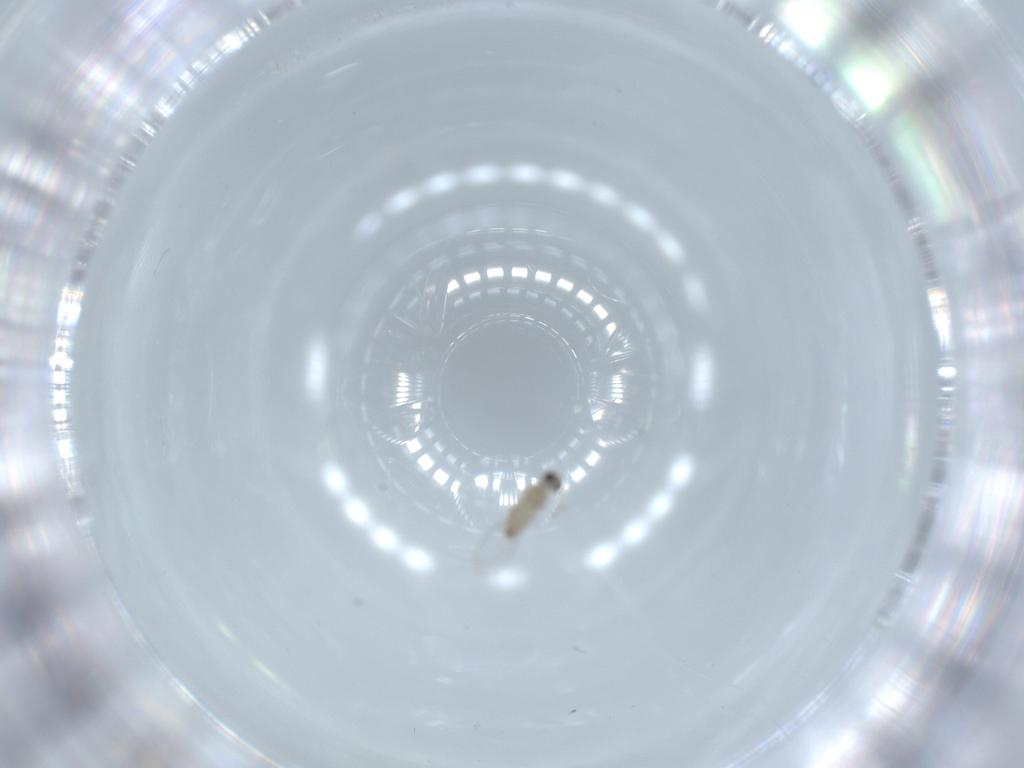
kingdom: Animalia
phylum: Arthropoda
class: Insecta
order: Diptera
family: Cecidomyiidae
